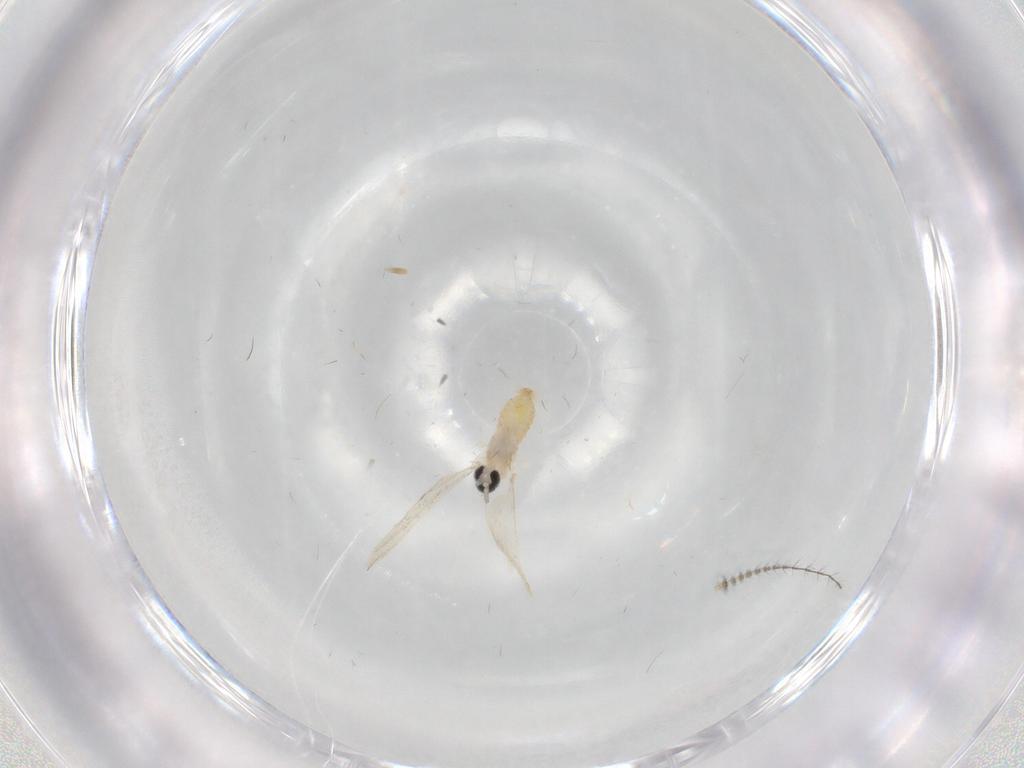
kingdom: Animalia
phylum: Arthropoda
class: Insecta
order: Diptera
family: Cecidomyiidae
